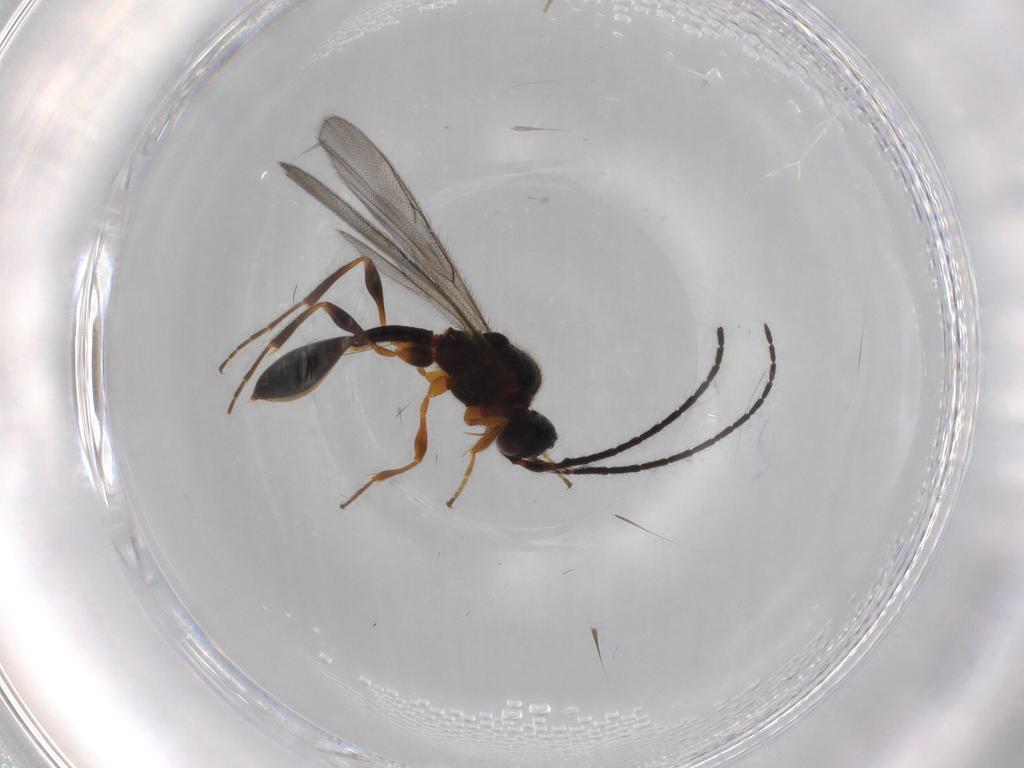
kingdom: Animalia
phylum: Arthropoda
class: Insecta
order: Hymenoptera
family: Diapriidae
